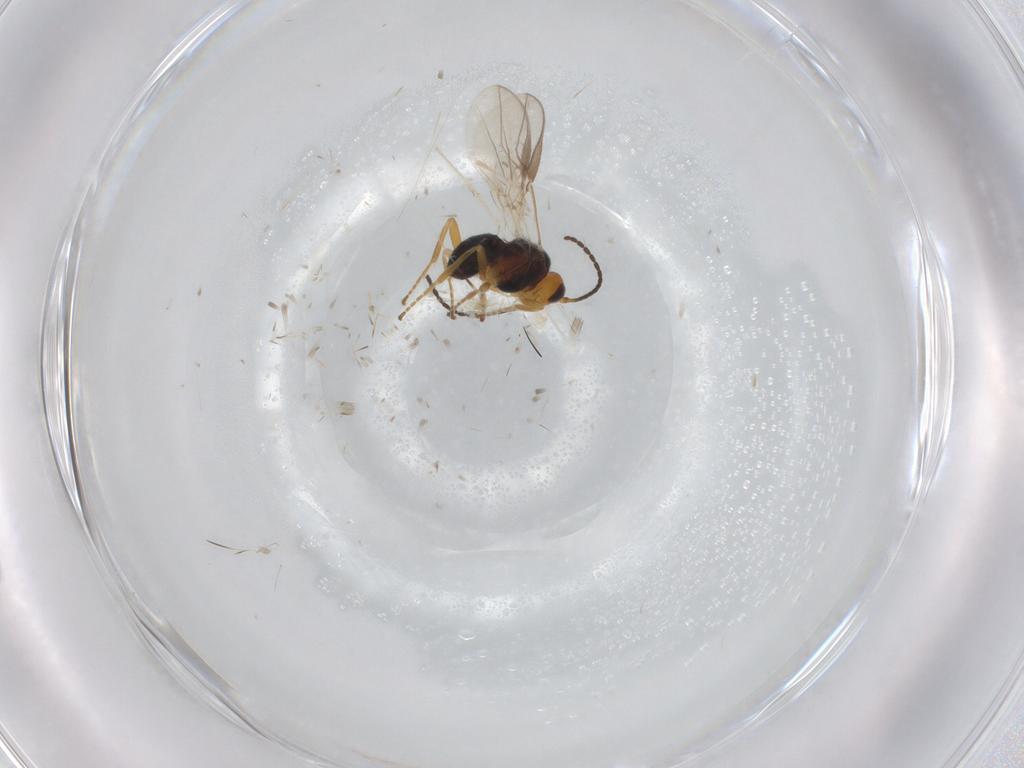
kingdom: Animalia
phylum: Arthropoda
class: Insecta
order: Hymenoptera
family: Braconidae
